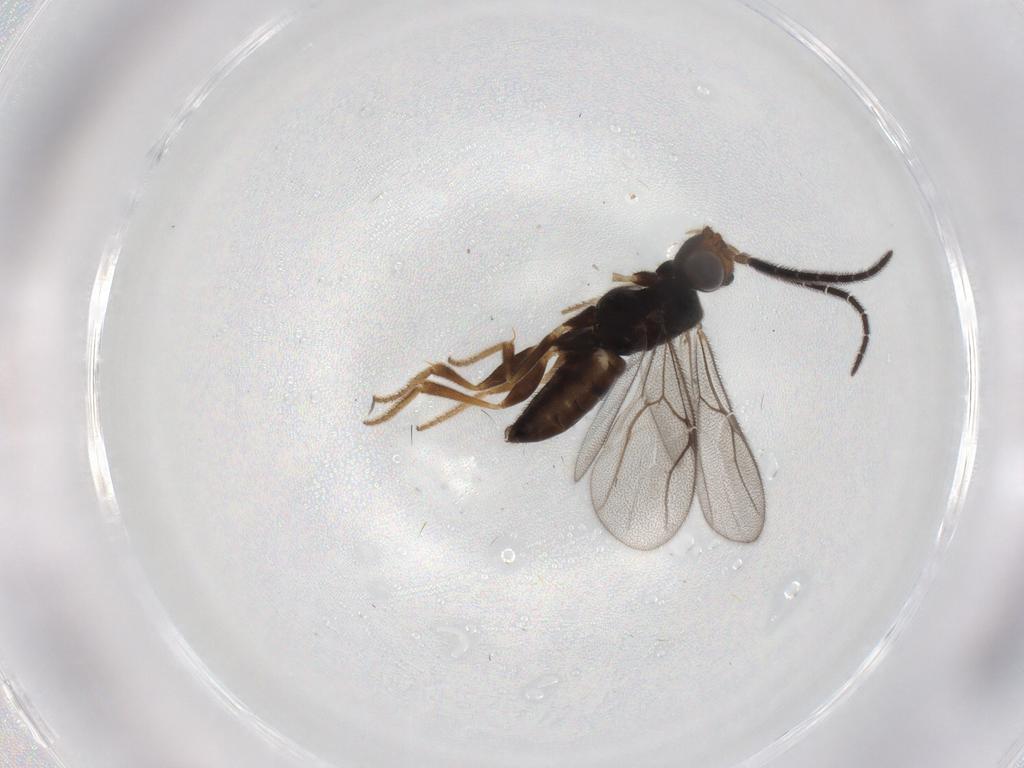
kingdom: Animalia
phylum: Arthropoda
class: Insecta
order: Hymenoptera
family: Dryinidae
